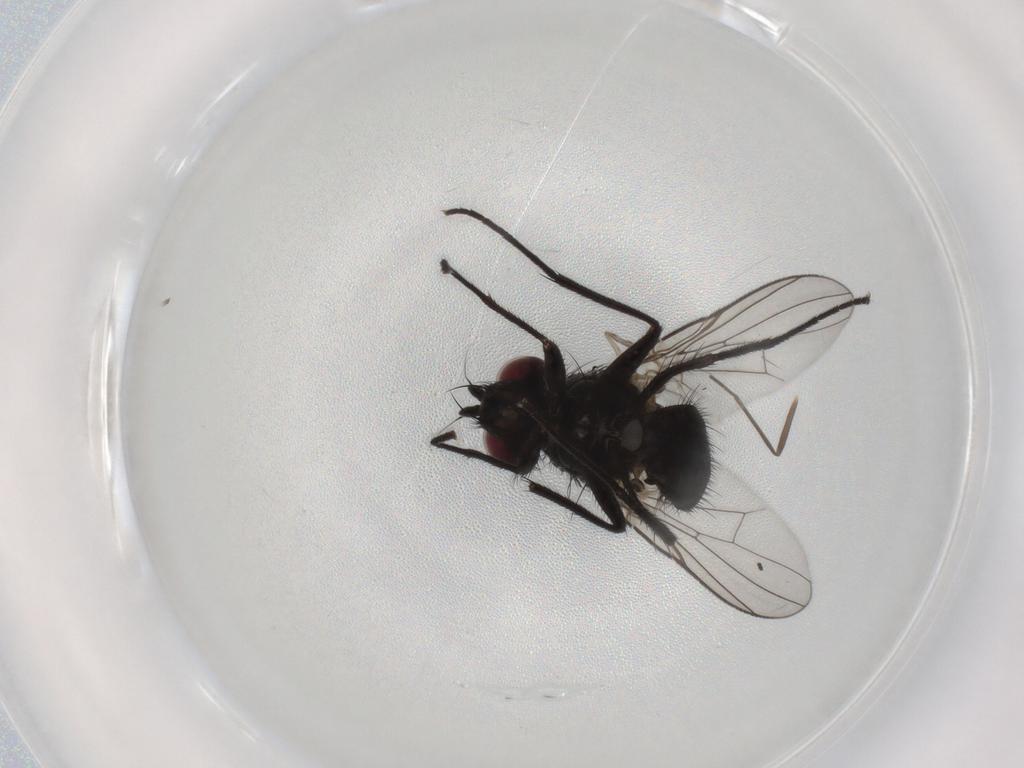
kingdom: Animalia
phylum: Arthropoda
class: Insecta
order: Diptera
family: Muscidae
